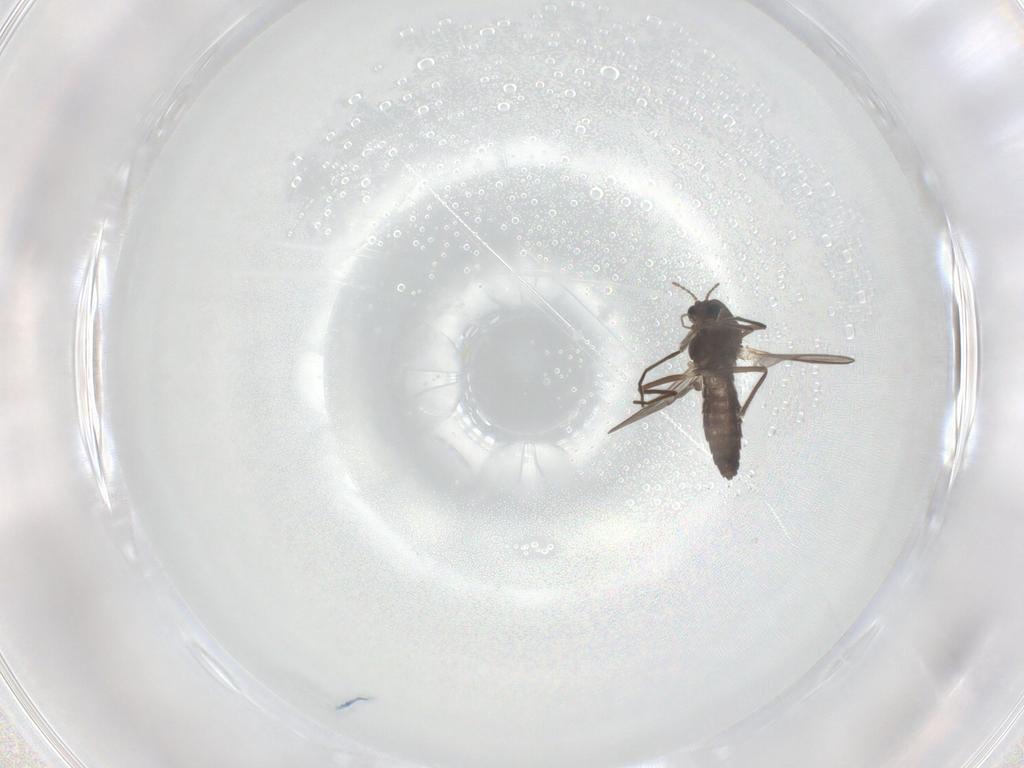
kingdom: Animalia
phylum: Arthropoda
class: Insecta
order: Diptera
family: Chironomidae
